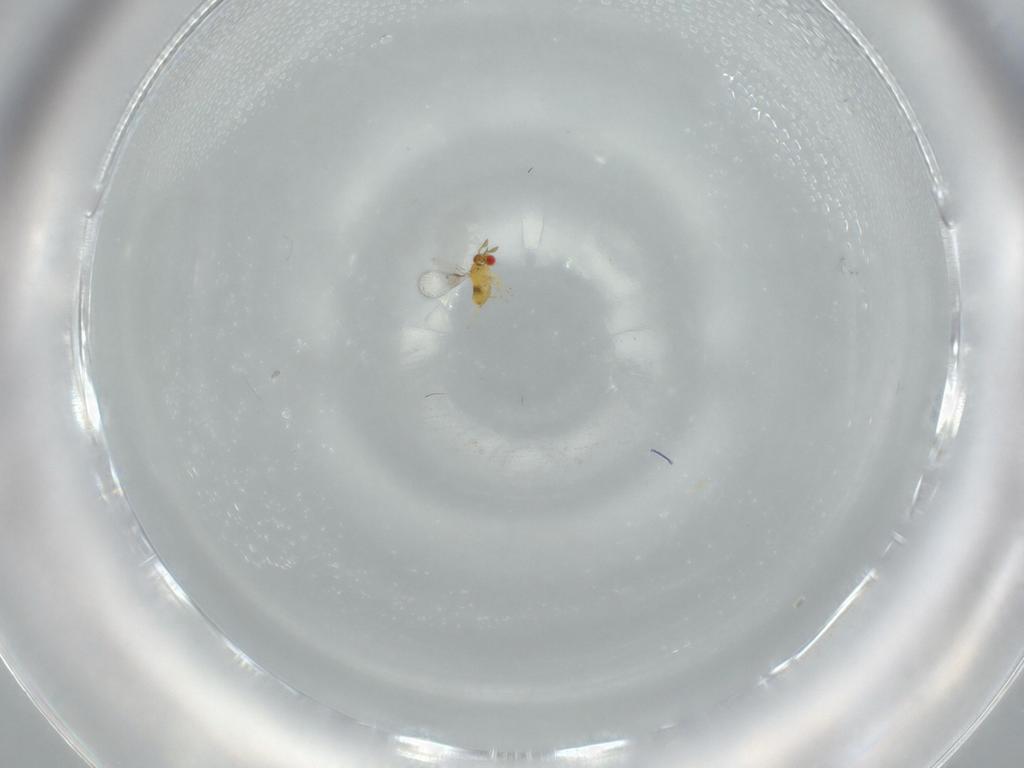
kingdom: Animalia
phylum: Arthropoda
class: Insecta
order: Hymenoptera
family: Trichogrammatidae
